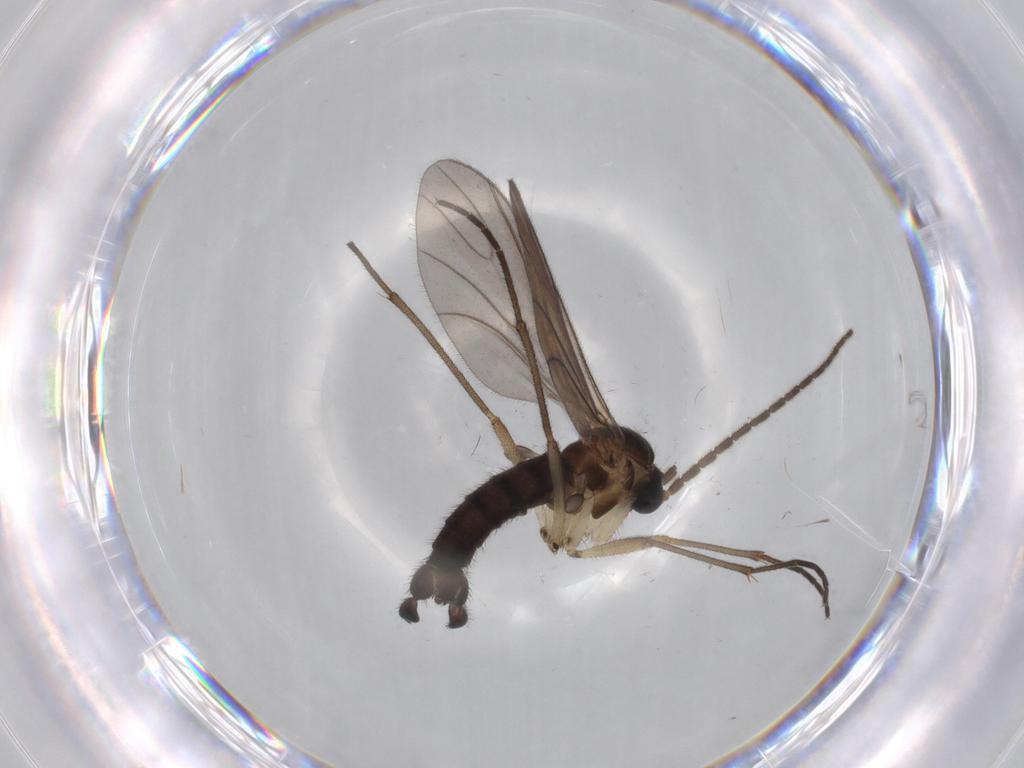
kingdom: Animalia
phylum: Arthropoda
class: Insecta
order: Diptera
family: Sciaridae
